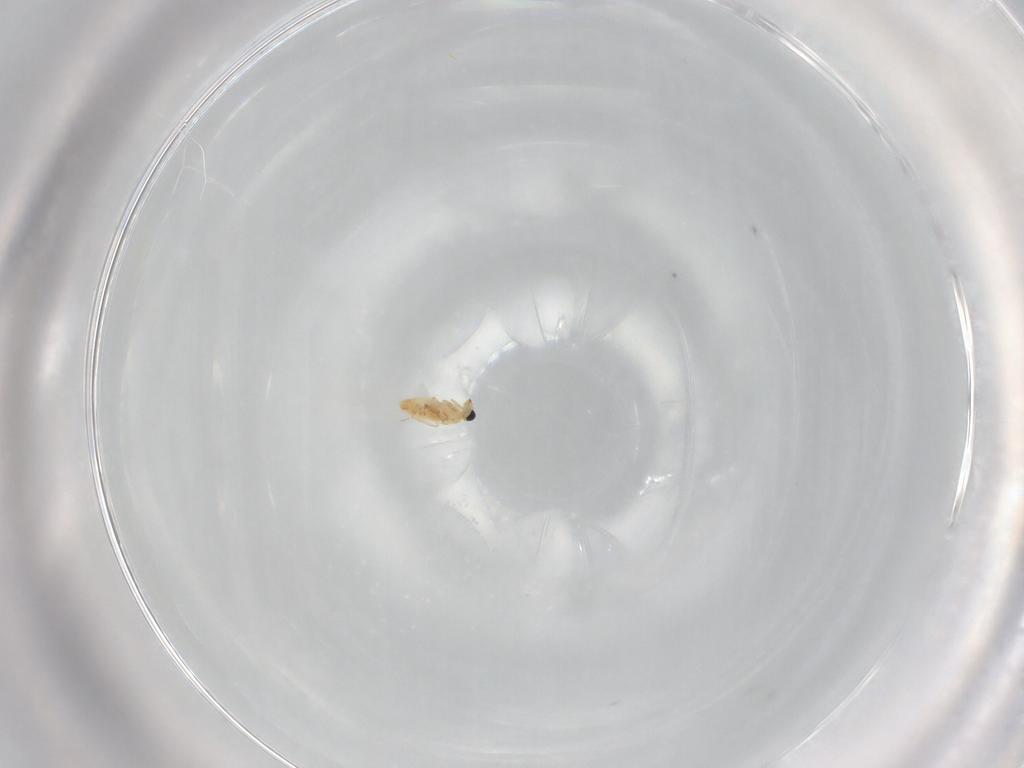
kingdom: Animalia
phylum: Arthropoda
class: Insecta
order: Hymenoptera
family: Trichogrammatidae
